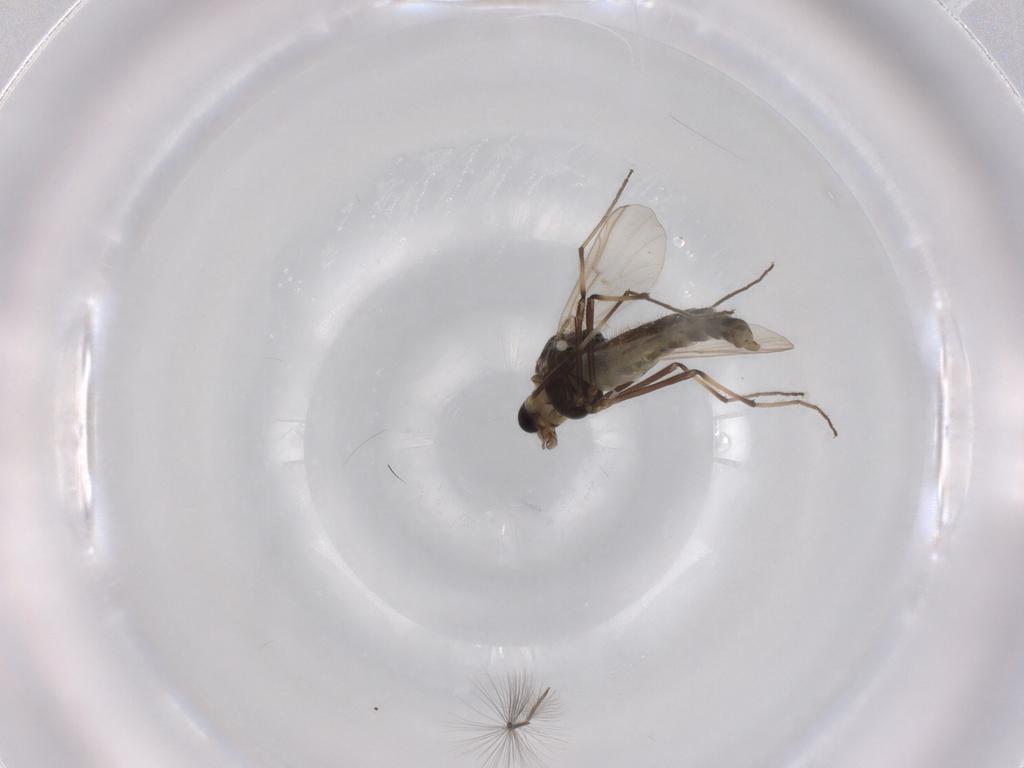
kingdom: Animalia
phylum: Arthropoda
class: Insecta
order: Diptera
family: Chironomidae
